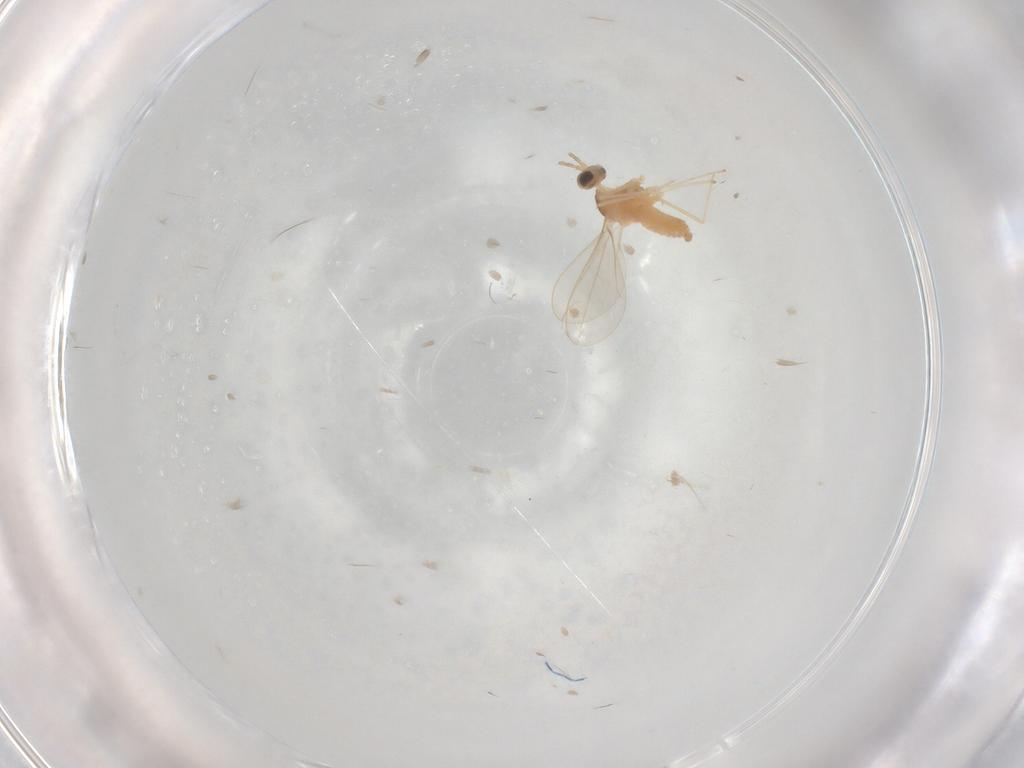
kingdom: Animalia
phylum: Arthropoda
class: Insecta
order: Diptera
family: Cecidomyiidae
